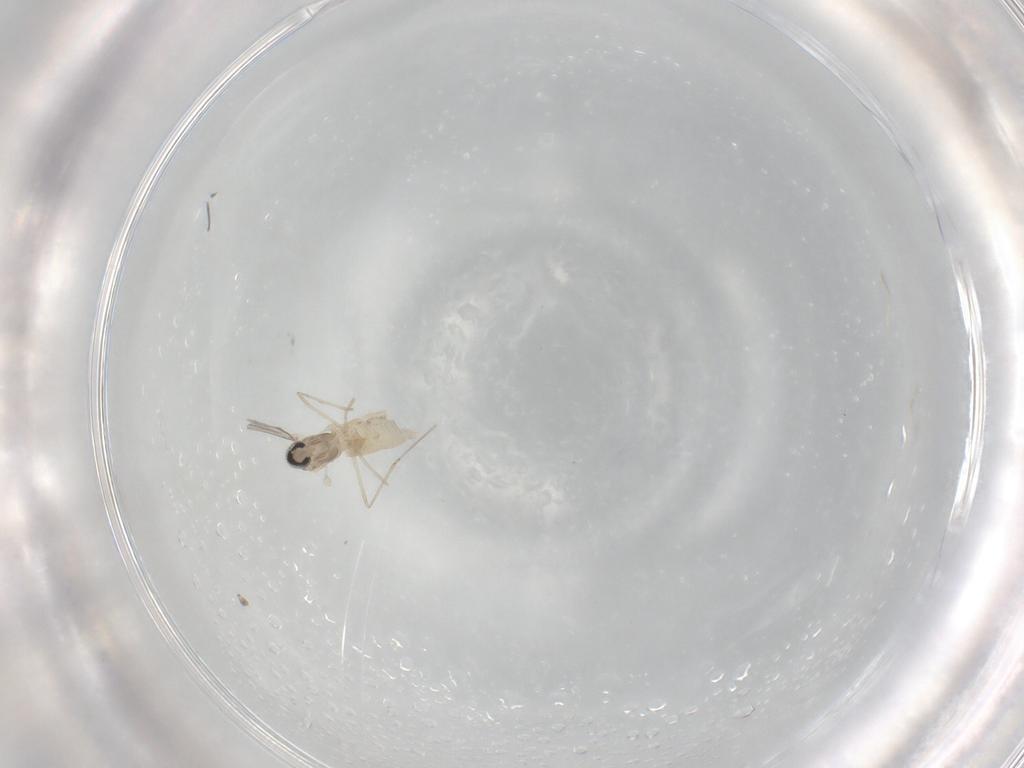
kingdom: Animalia
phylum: Arthropoda
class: Insecta
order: Diptera
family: Cecidomyiidae
